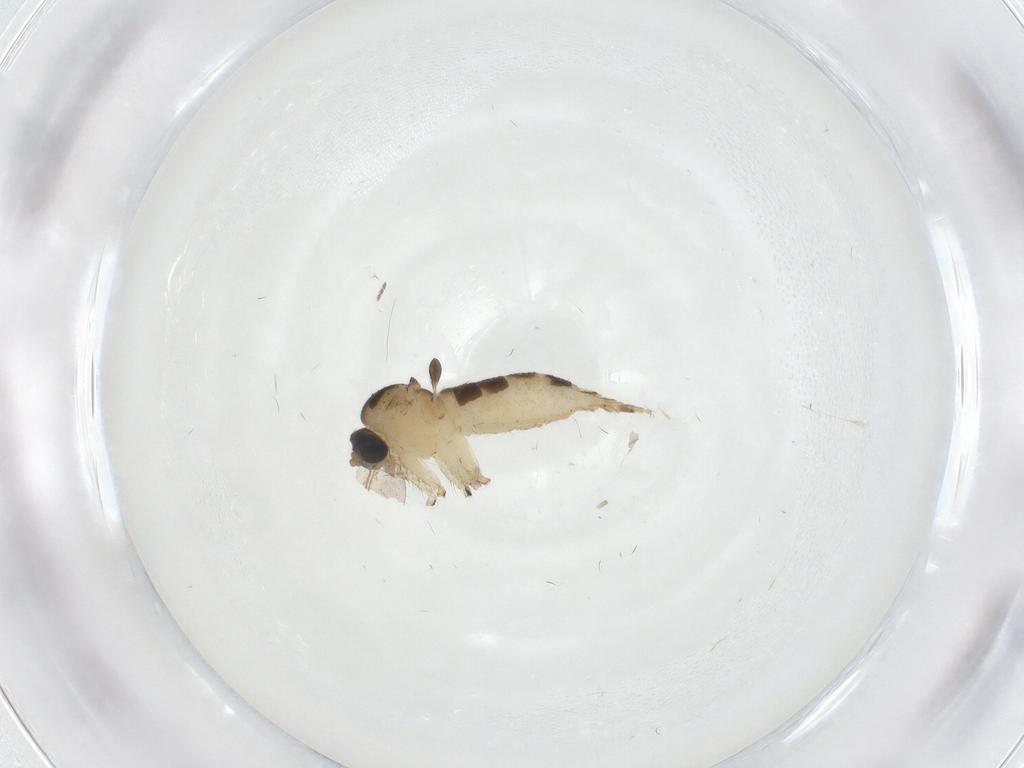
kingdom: Animalia
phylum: Arthropoda
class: Insecta
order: Diptera
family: Sciaridae
